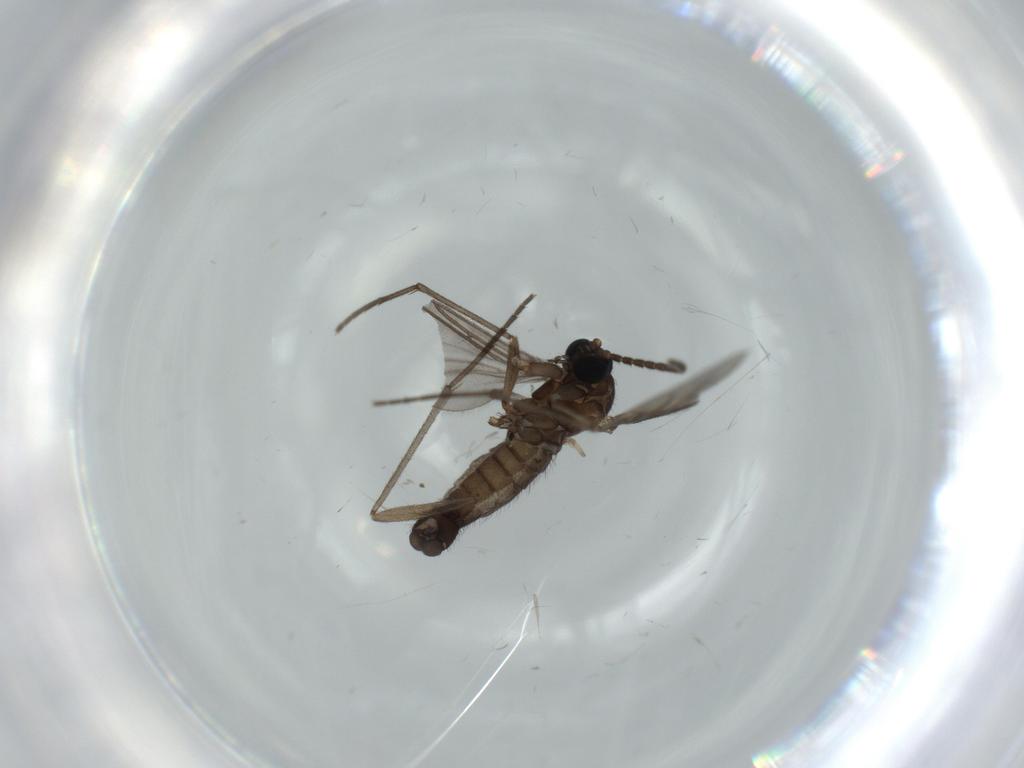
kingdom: Animalia
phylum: Arthropoda
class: Insecta
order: Diptera
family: Sciaridae
